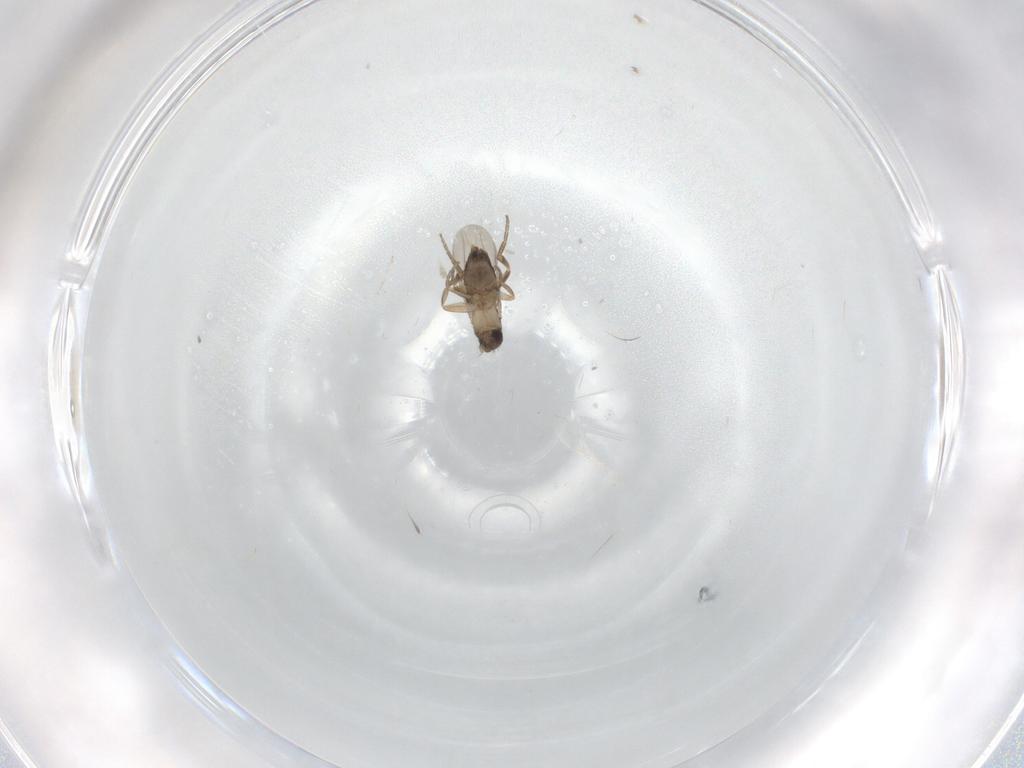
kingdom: Animalia
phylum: Arthropoda
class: Insecta
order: Diptera
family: Phoridae
